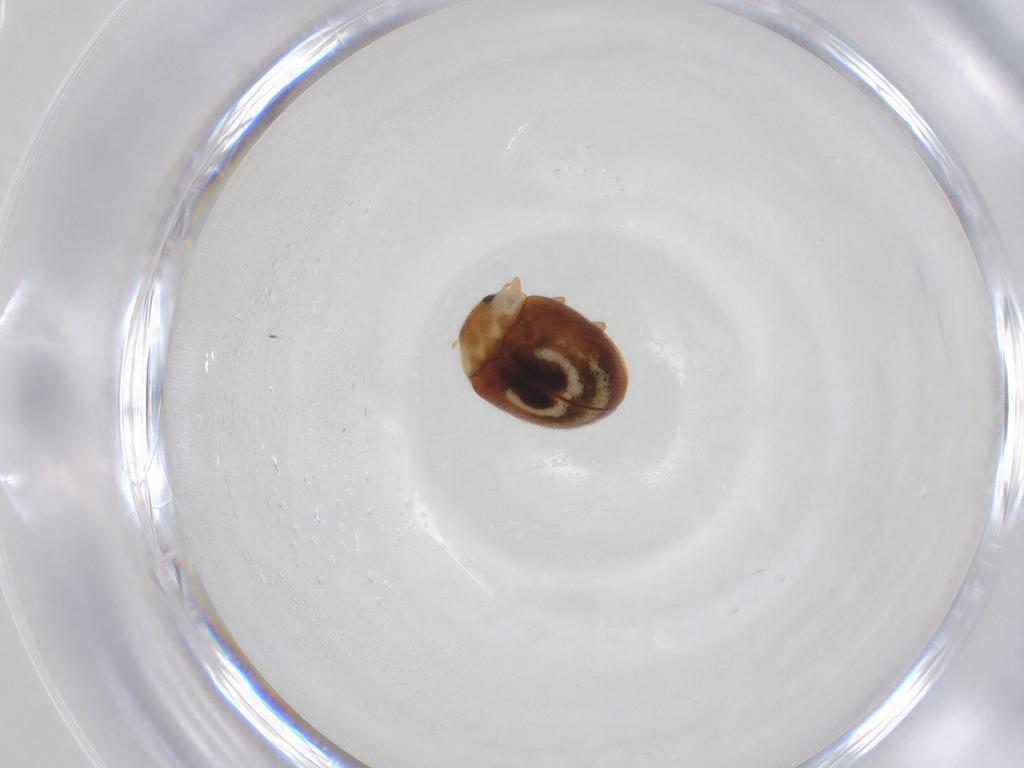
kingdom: Animalia
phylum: Arthropoda
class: Insecta
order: Coleoptera
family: Coccinellidae
